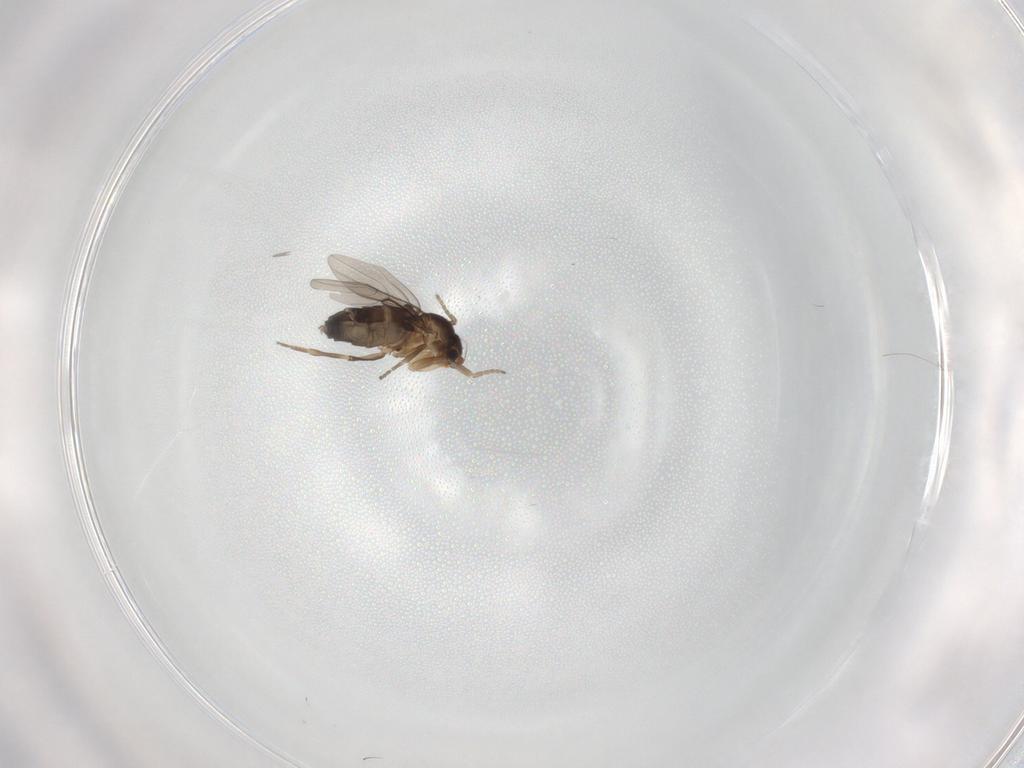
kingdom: Animalia
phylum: Arthropoda
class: Insecta
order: Diptera
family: Phoridae
